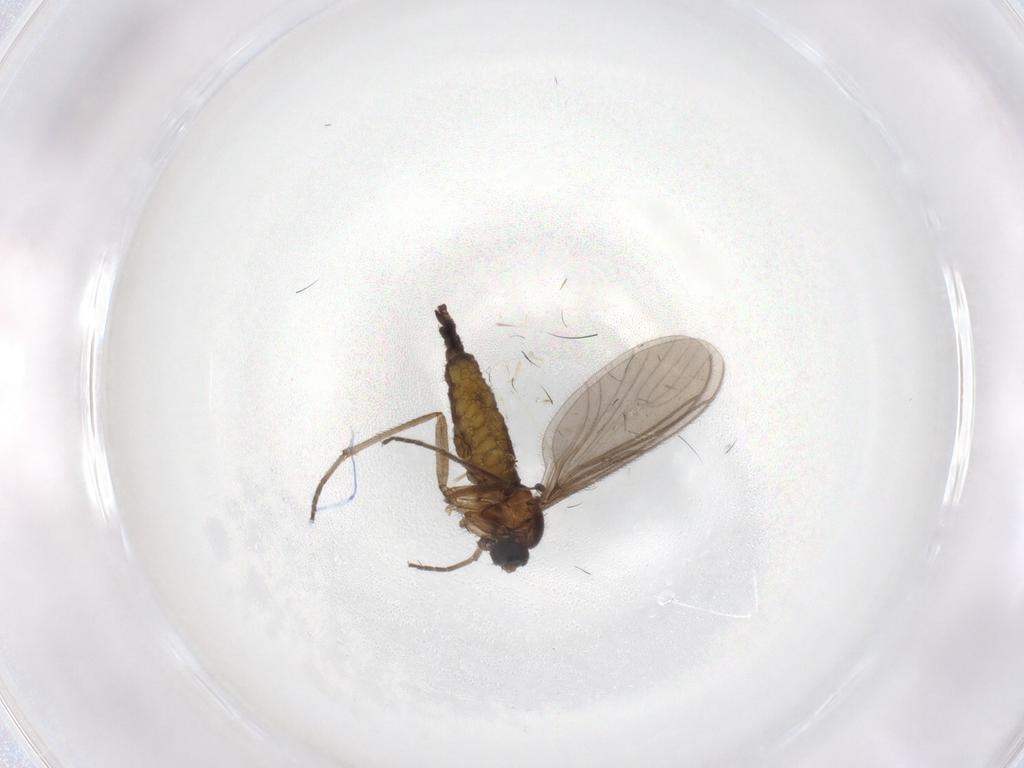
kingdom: Animalia
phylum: Arthropoda
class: Insecta
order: Diptera
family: Sciaridae
